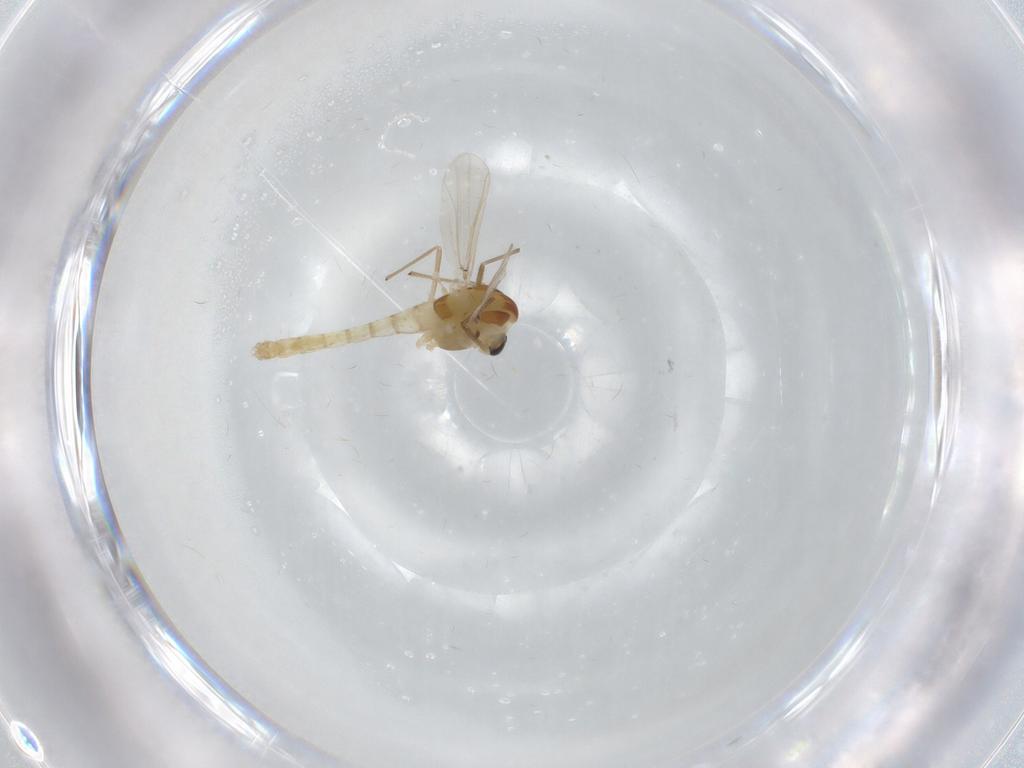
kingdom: Animalia
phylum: Arthropoda
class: Insecta
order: Diptera
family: Chironomidae
